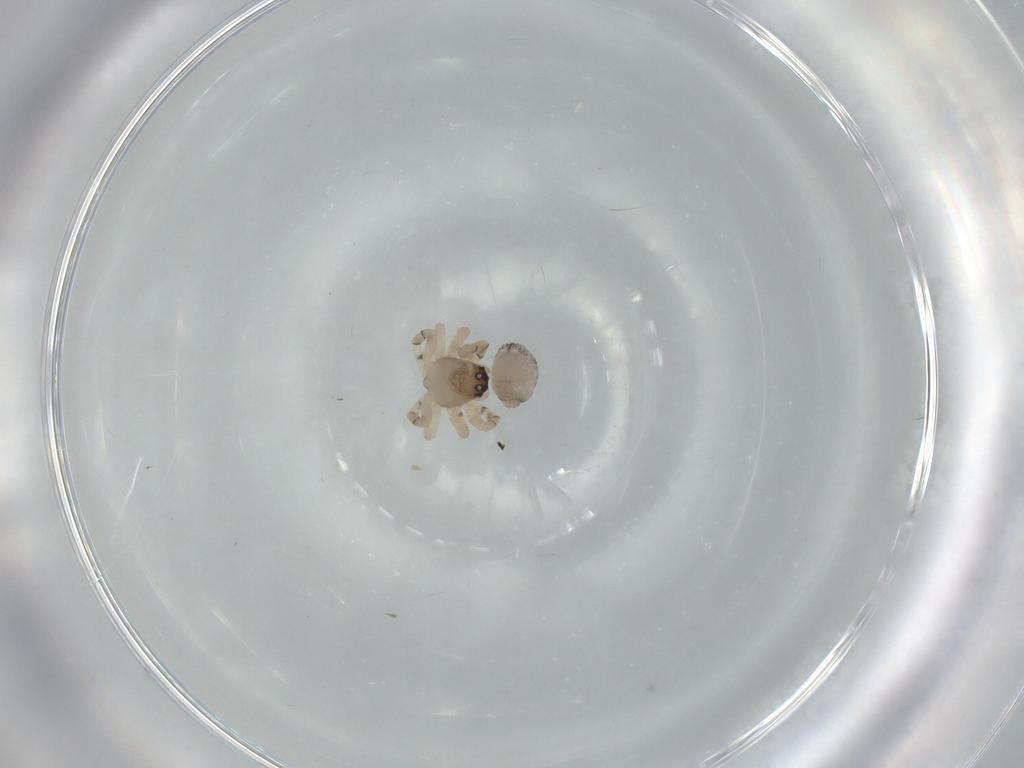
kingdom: Animalia
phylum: Arthropoda
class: Arachnida
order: Araneae
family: Theridiidae
